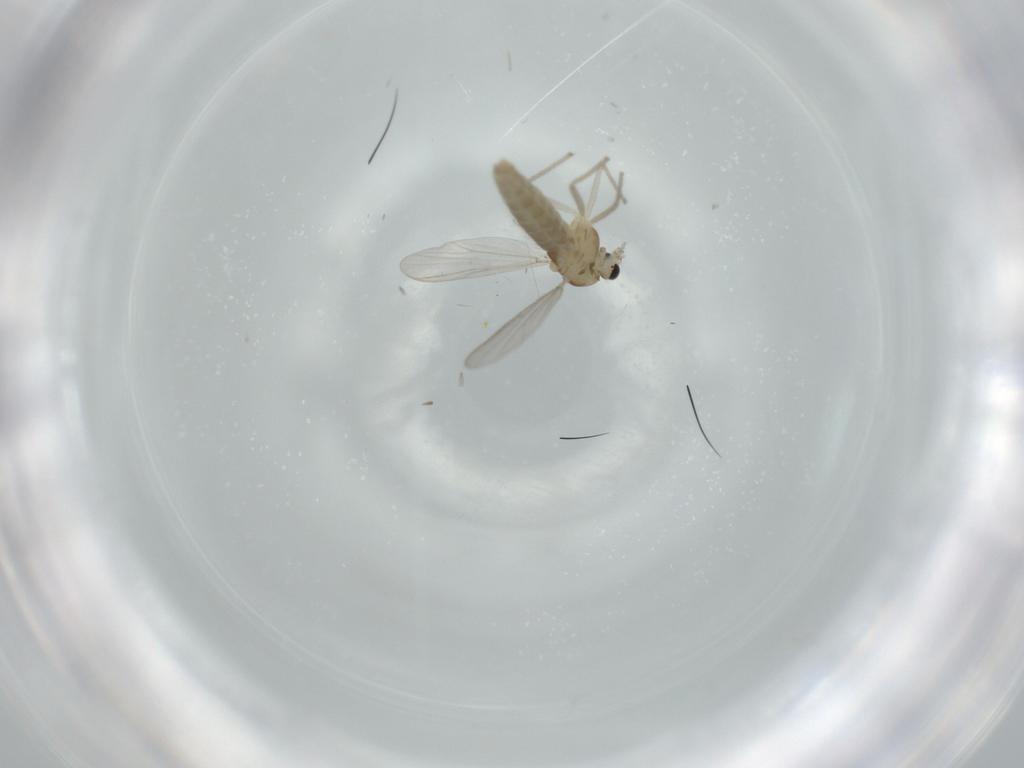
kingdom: Animalia
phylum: Arthropoda
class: Insecta
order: Diptera
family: Chironomidae
